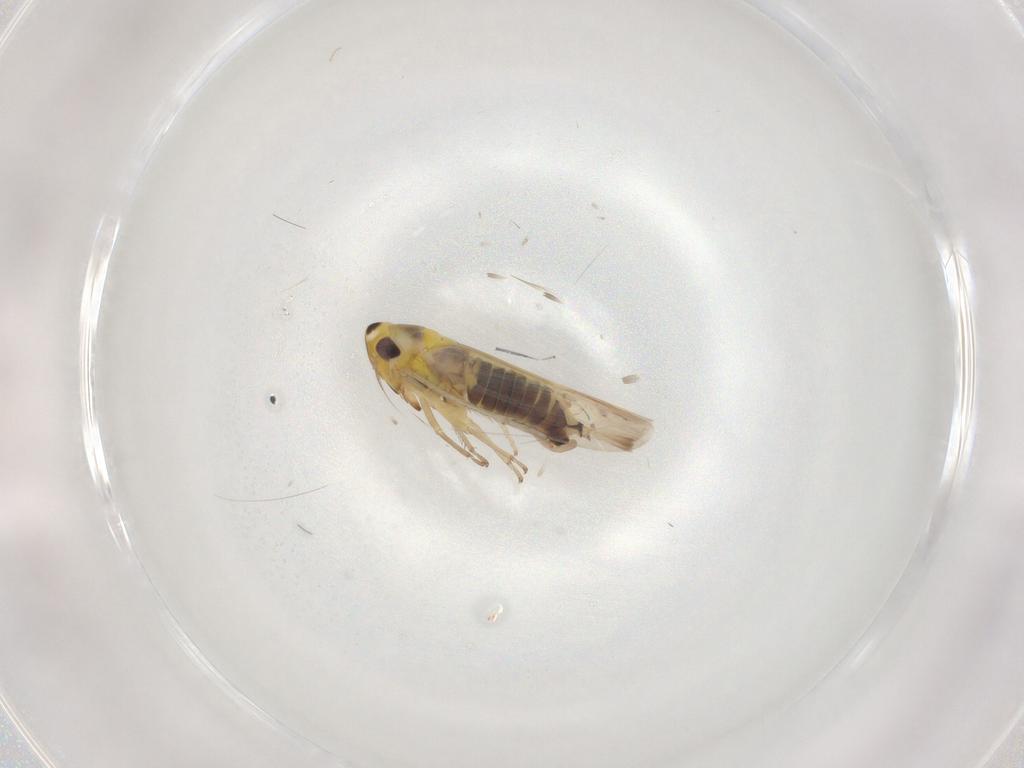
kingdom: Animalia
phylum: Arthropoda
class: Insecta
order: Hemiptera
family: Cicadellidae
